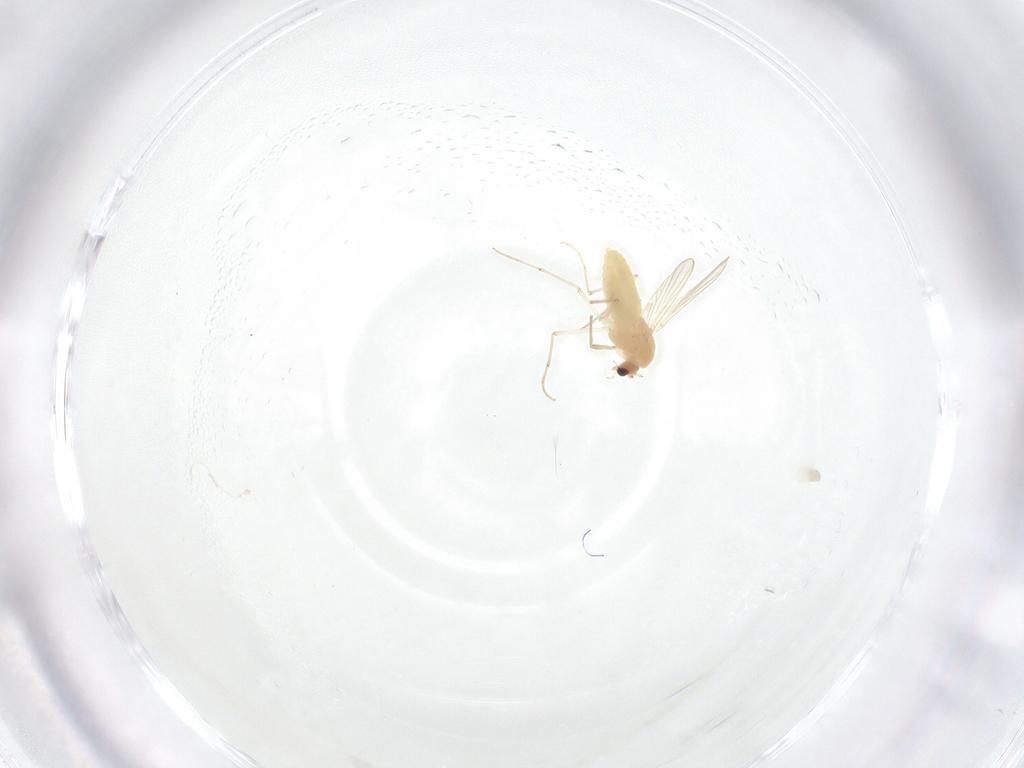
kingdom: Animalia
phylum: Arthropoda
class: Insecta
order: Diptera
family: Chironomidae
